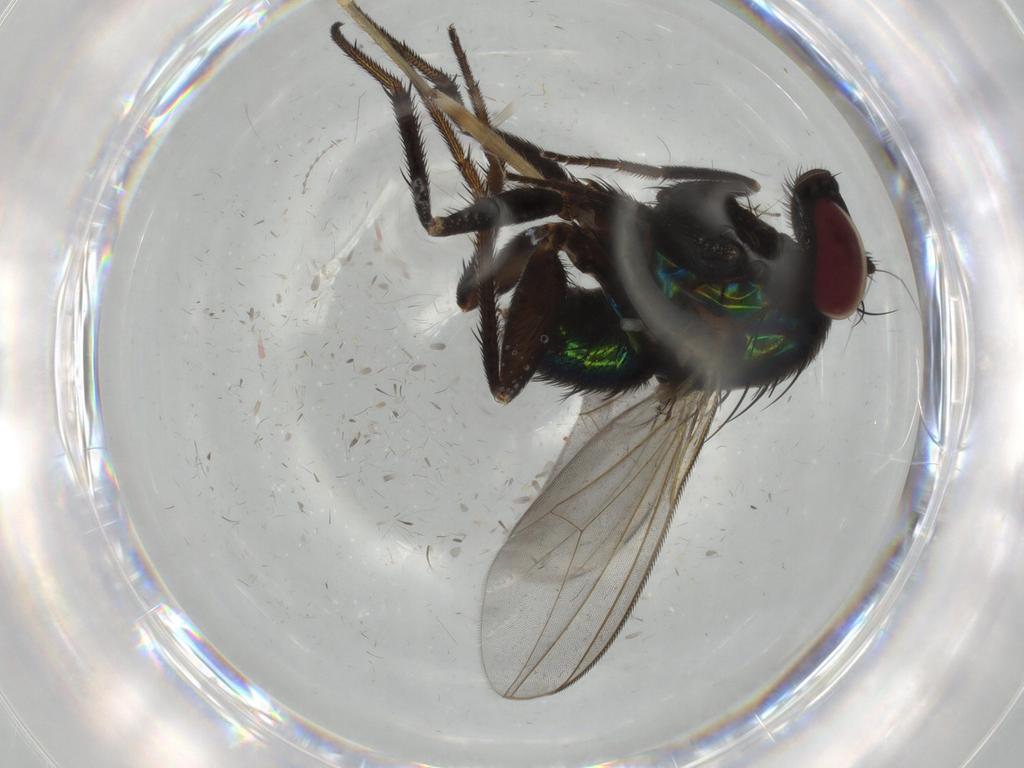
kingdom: Animalia
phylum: Arthropoda
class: Insecta
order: Diptera
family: Dolichopodidae
